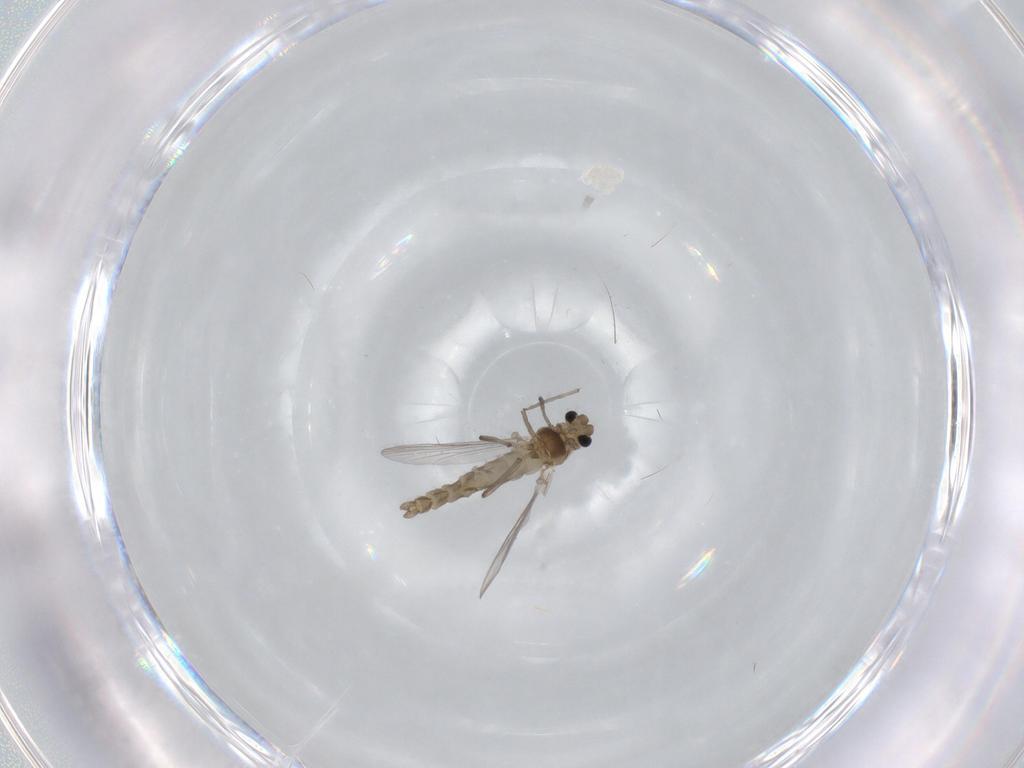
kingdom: Animalia
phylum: Arthropoda
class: Insecta
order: Diptera
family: Chironomidae
